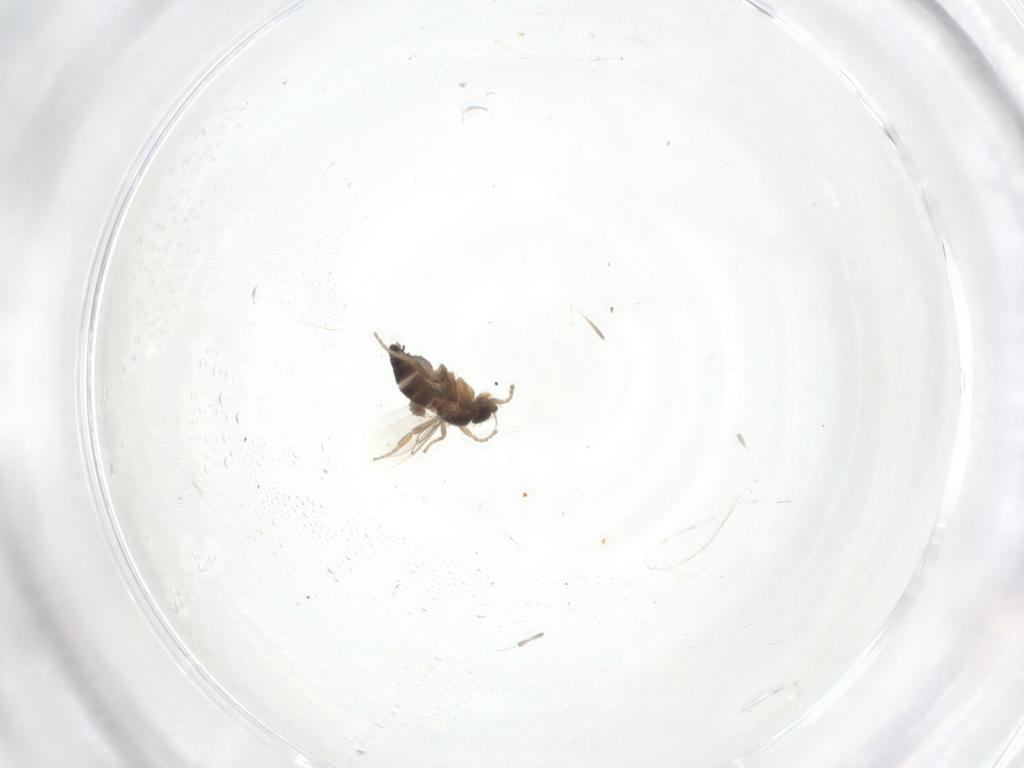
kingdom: Animalia
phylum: Arthropoda
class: Insecta
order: Diptera
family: Phoridae
